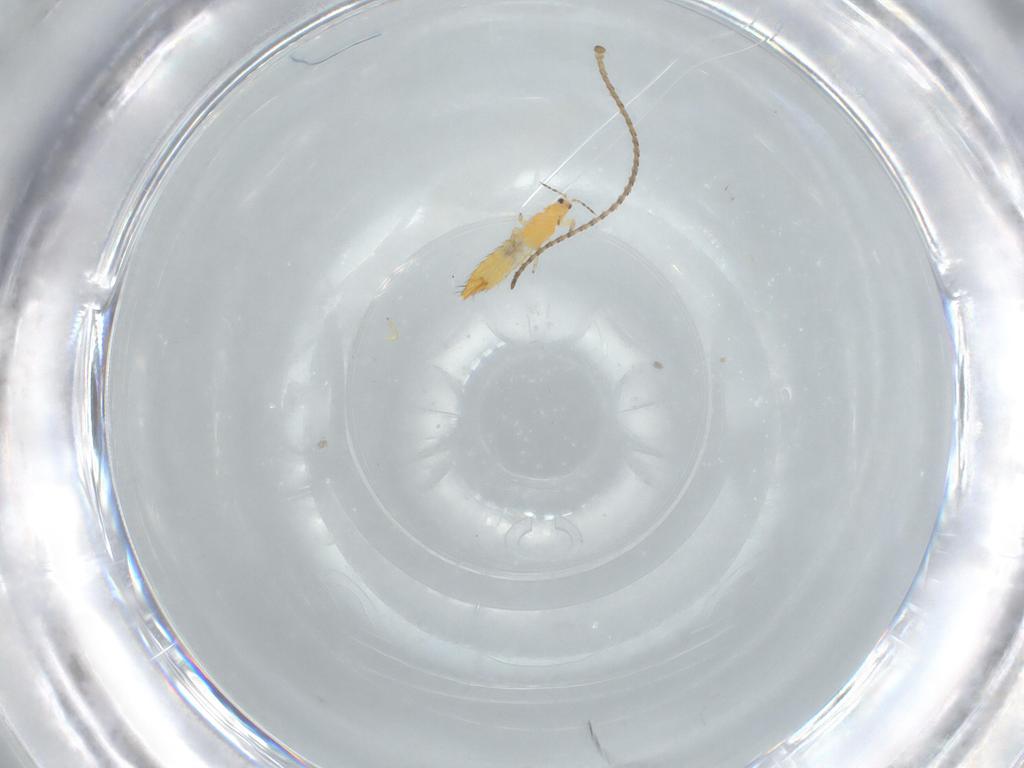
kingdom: Animalia
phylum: Arthropoda
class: Insecta
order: Thysanoptera
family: Thripidae
